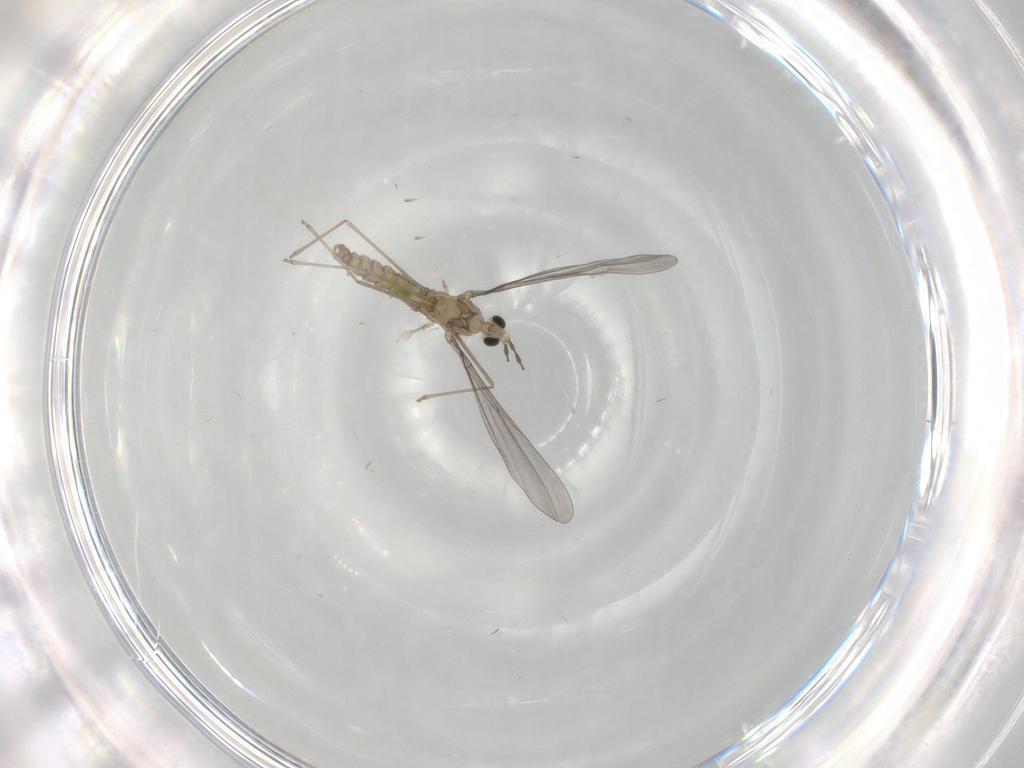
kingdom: Animalia
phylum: Arthropoda
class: Insecta
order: Diptera
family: Cecidomyiidae
